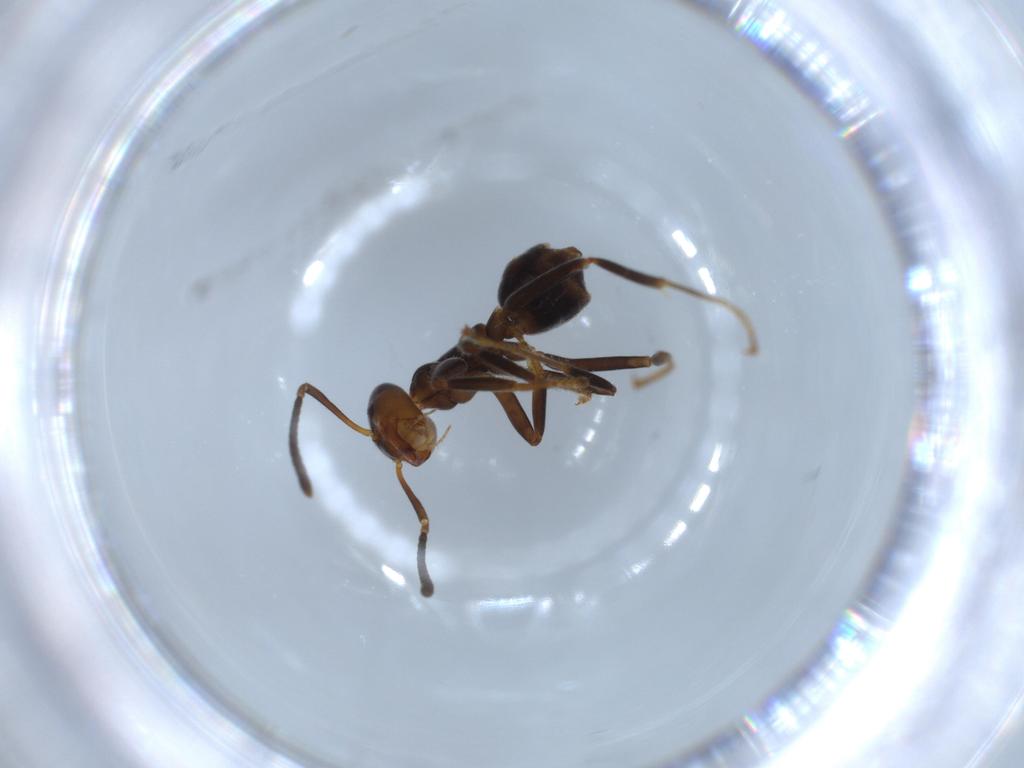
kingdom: Animalia
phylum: Arthropoda
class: Insecta
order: Hymenoptera
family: Formicidae
